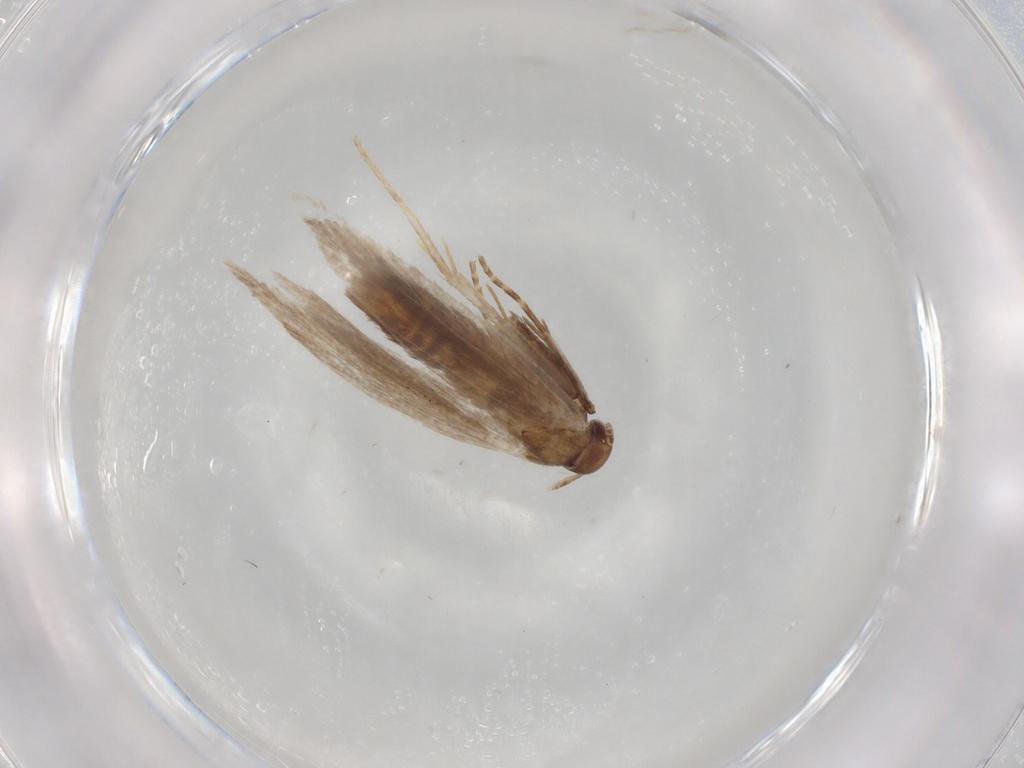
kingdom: Animalia
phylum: Arthropoda
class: Insecta
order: Lepidoptera
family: Gelechiidae
